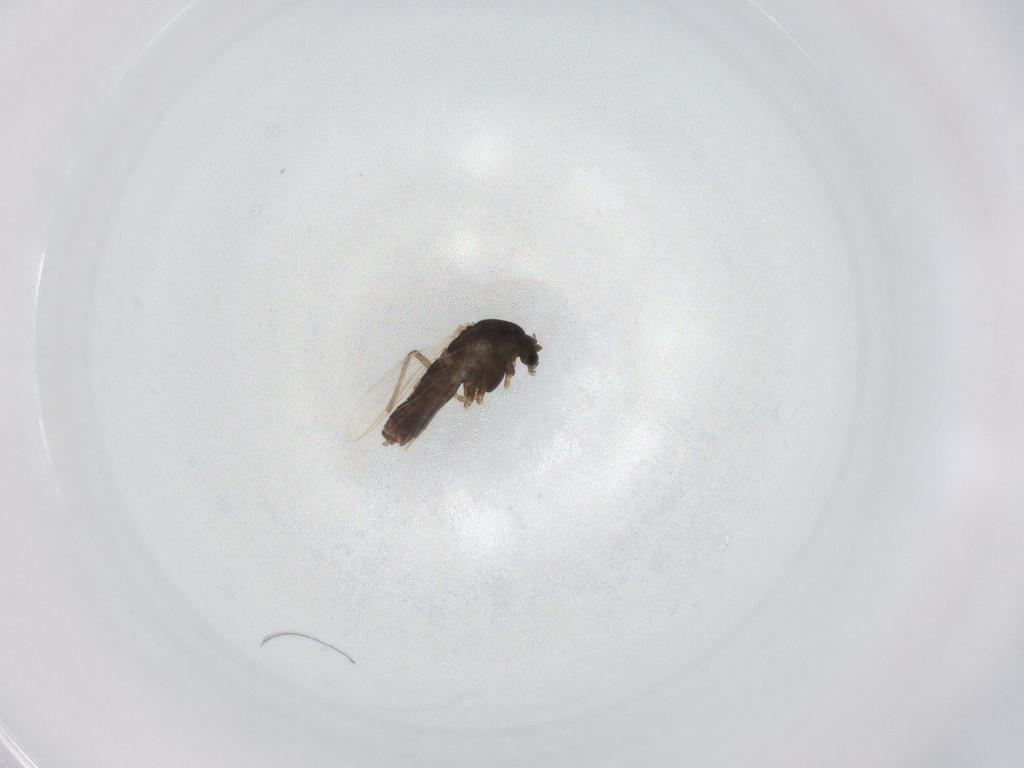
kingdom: Animalia
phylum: Arthropoda
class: Insecta
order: Diptera
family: Chironomidae
